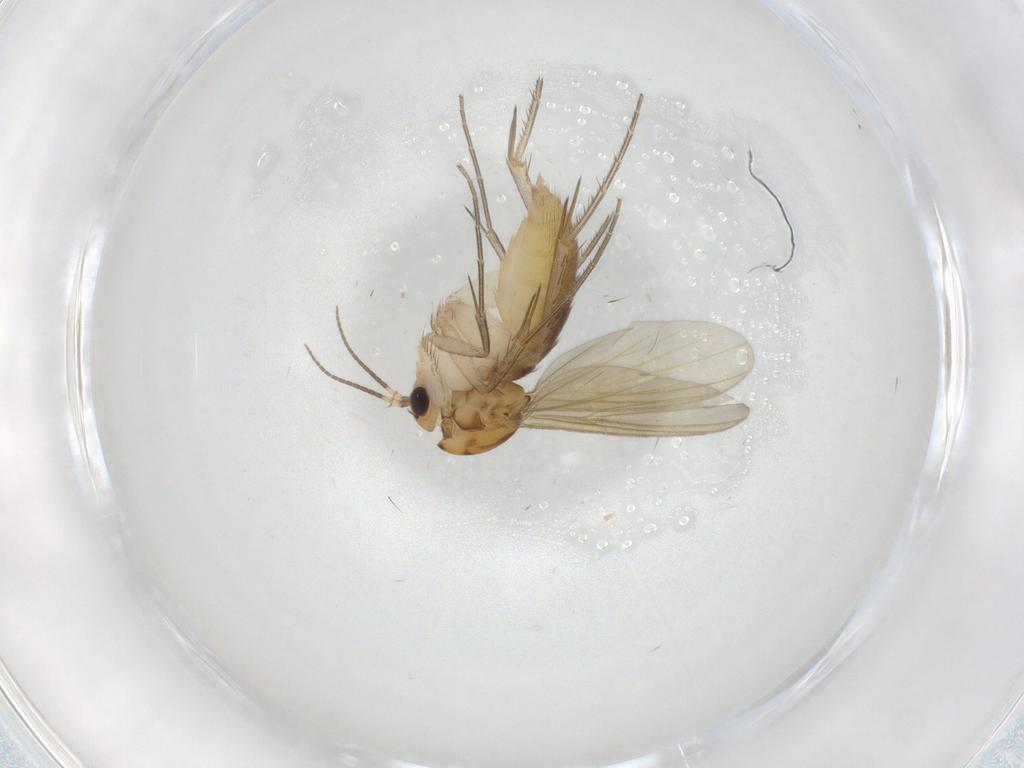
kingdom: Animalia
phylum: Arthropoda
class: Insecta
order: Diptera
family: Mycetophilidae
